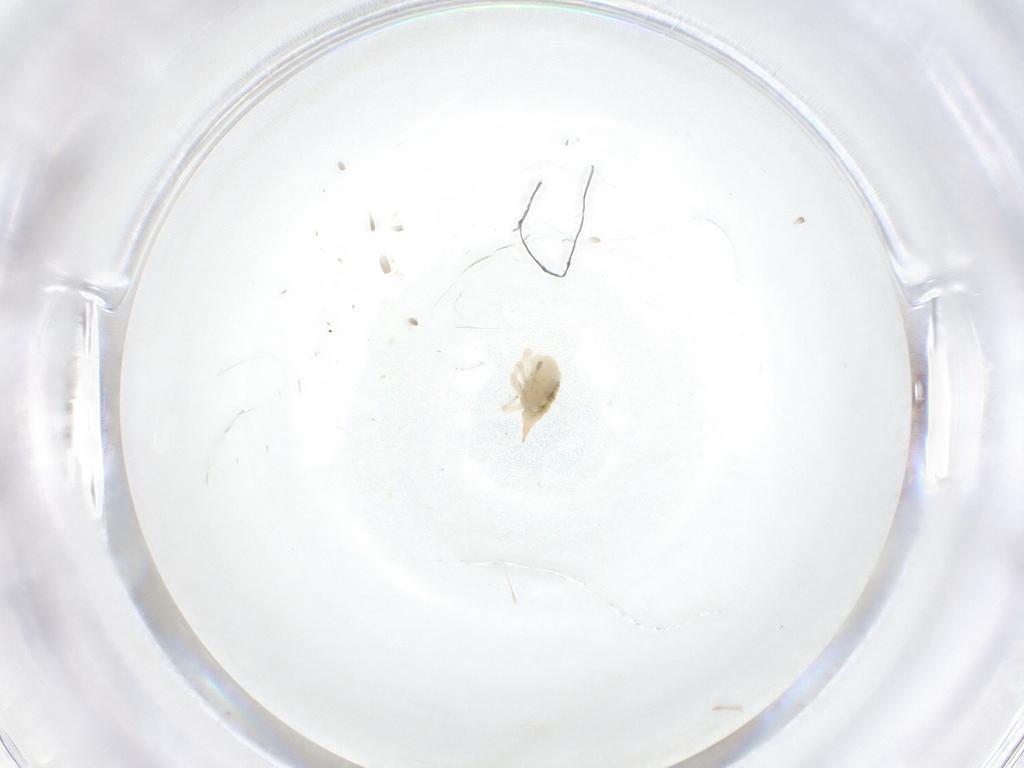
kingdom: Animalia
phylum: Arthropoda
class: Arachnida
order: Trombidiformes
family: Bdellidae
